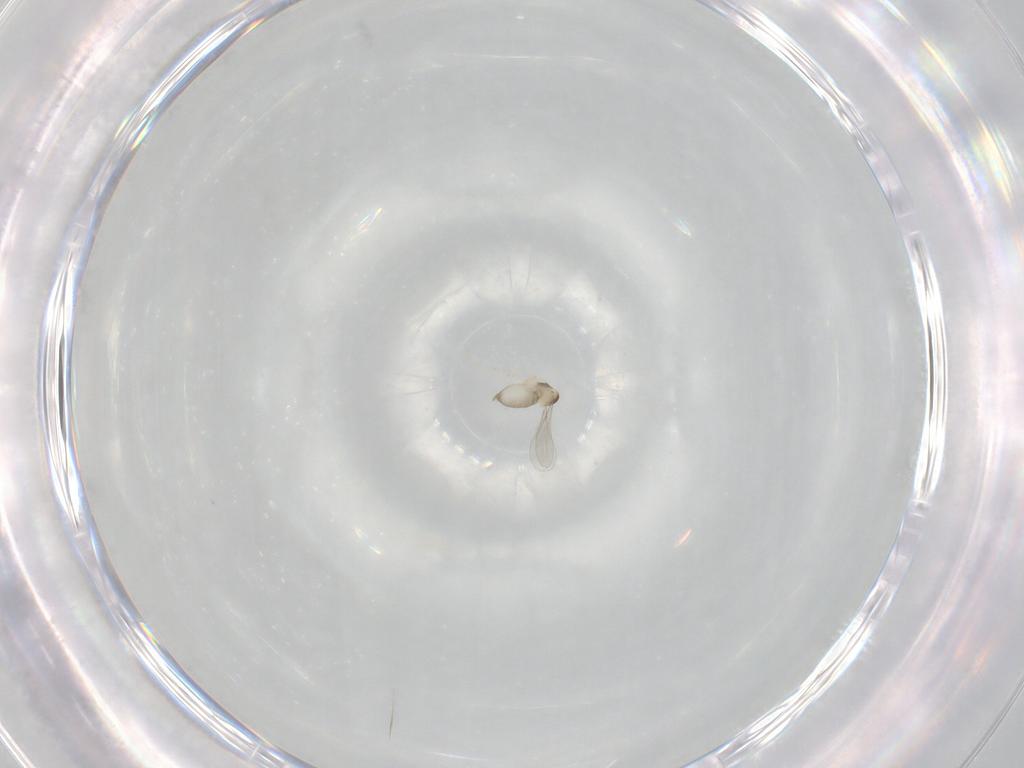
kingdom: Animalia
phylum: Arthropoda
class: Insecta
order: Diptera
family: Sciaridae
